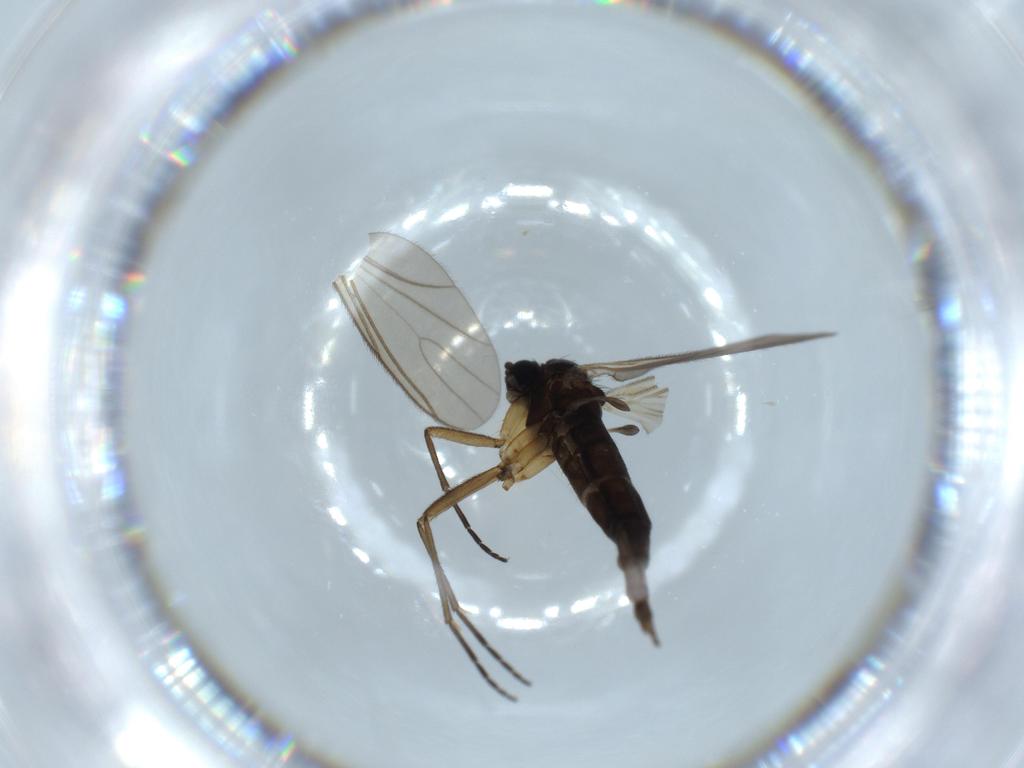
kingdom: Animalia
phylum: Arthropoda
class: Insecta
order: Diptera
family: Sciaridae
